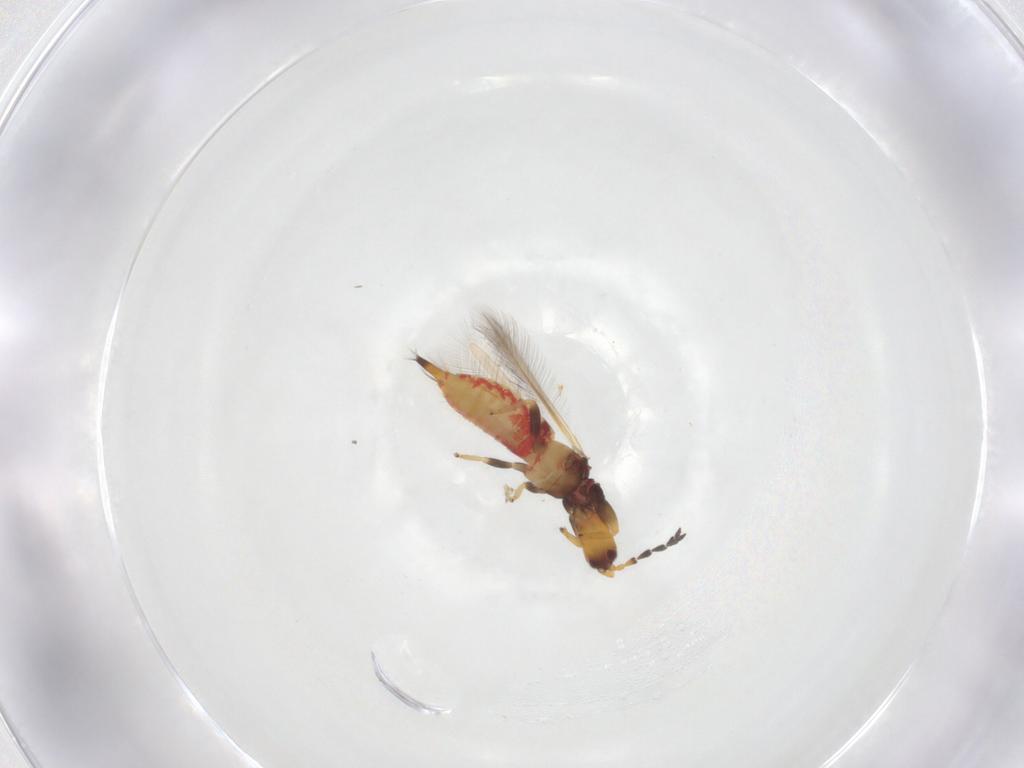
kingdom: Animalia
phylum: Arthropoda
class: Insecta
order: Thysanoptera
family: Phlaeothripidae
